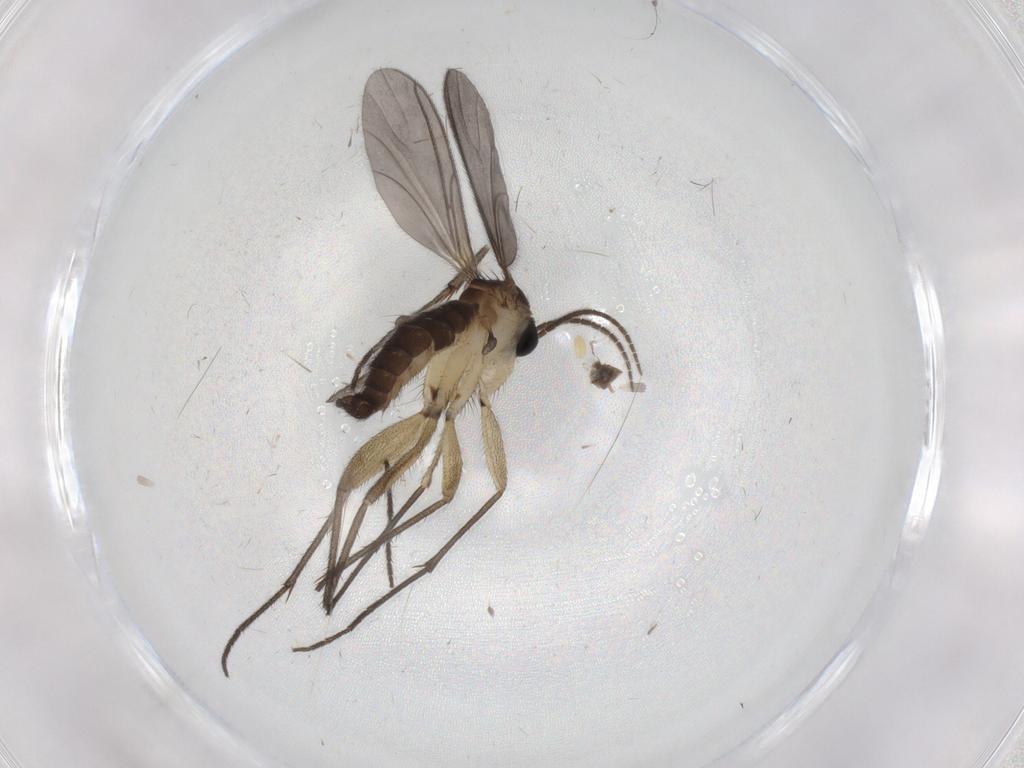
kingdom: Animalia
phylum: Arthropoda
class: Insecta
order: Diptera
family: Sciaridae
